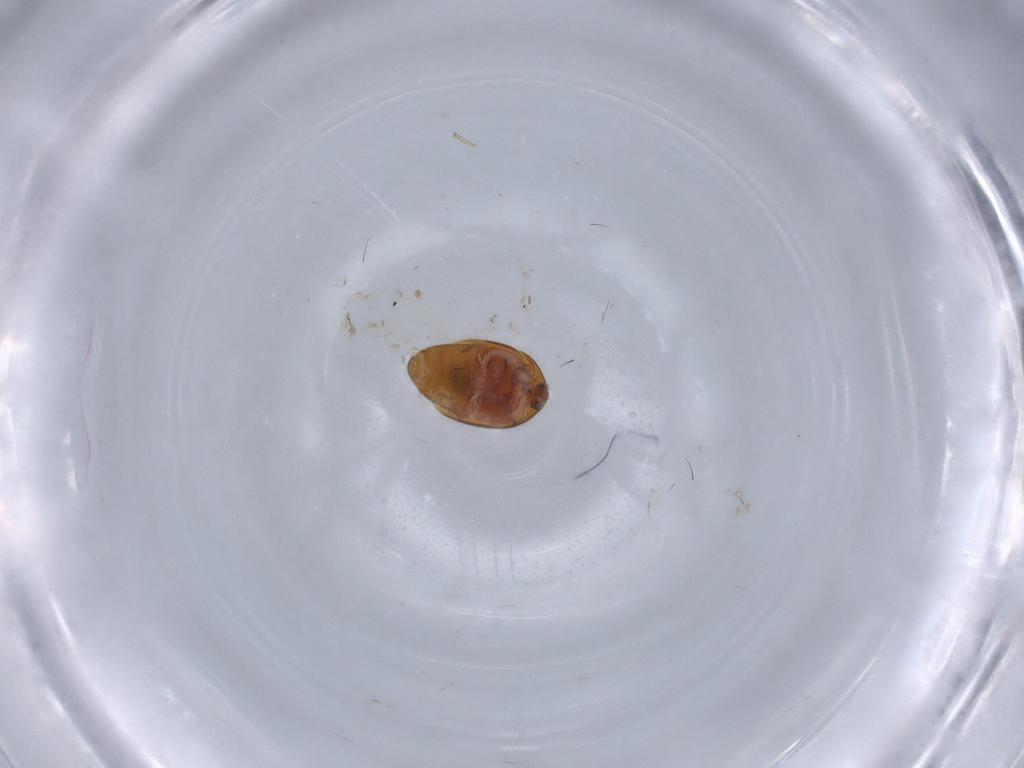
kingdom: Animalia
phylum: Arthropoda
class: Insecta
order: Coleoptera
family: Corylophidae
